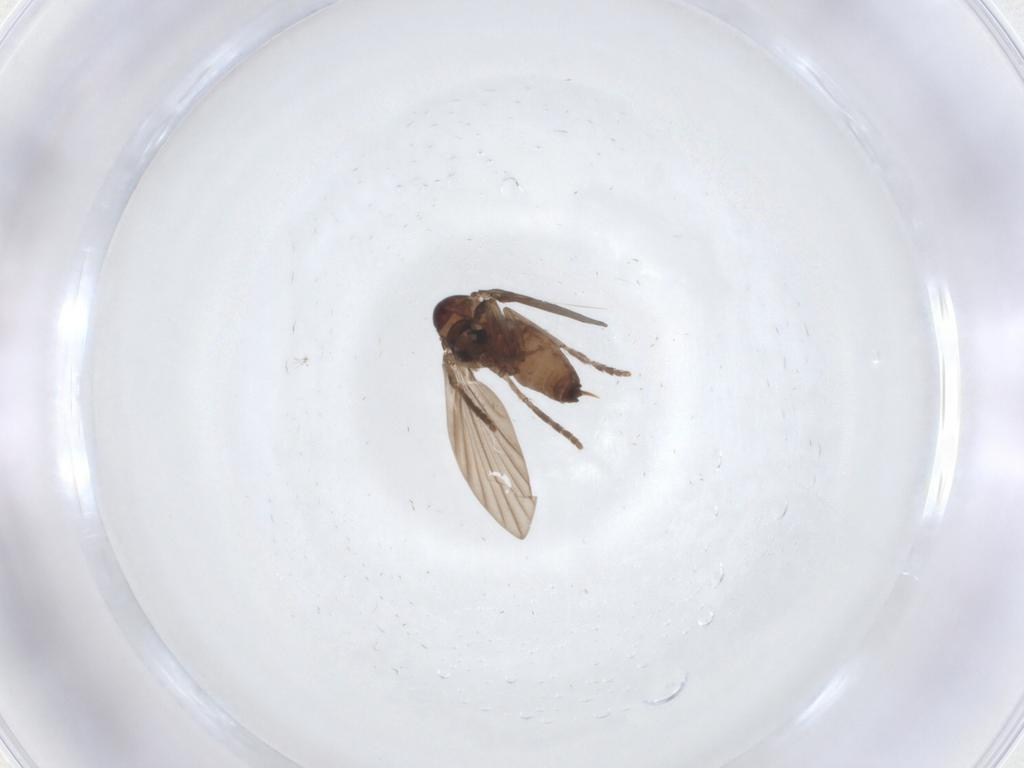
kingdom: Animalia
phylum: Arthropoda
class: Insecta
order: Diptera
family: Psychodidae
